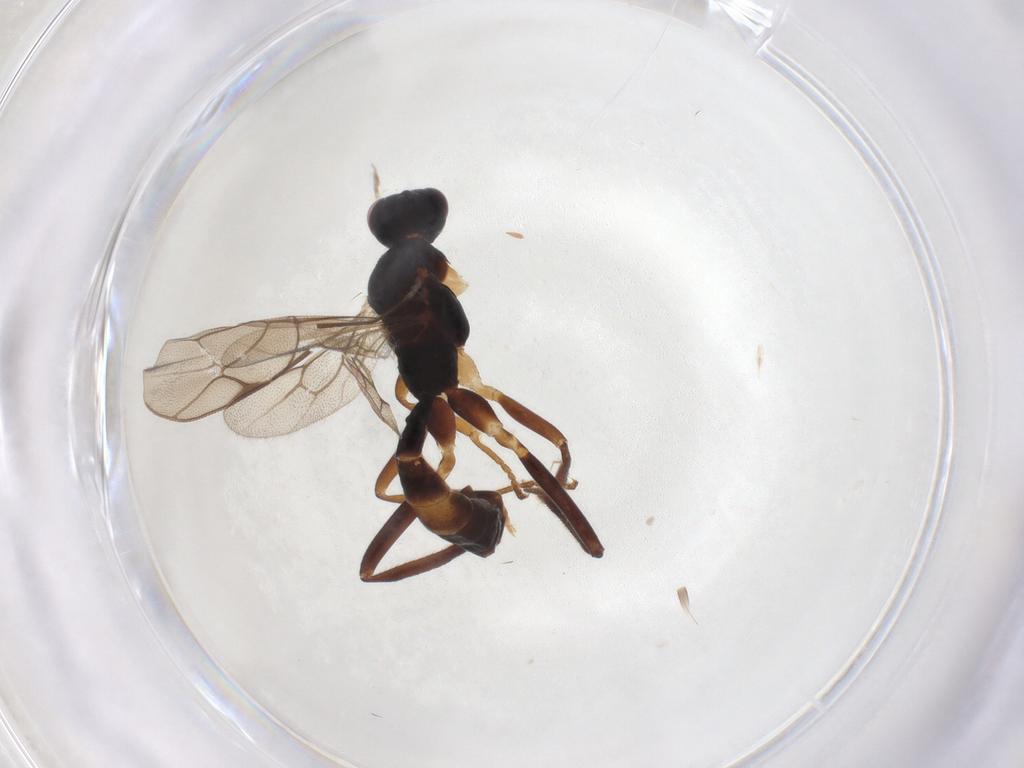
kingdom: Animalia
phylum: Arthropoda
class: Insecta
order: Hymenoptera
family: Ichneumonidae
